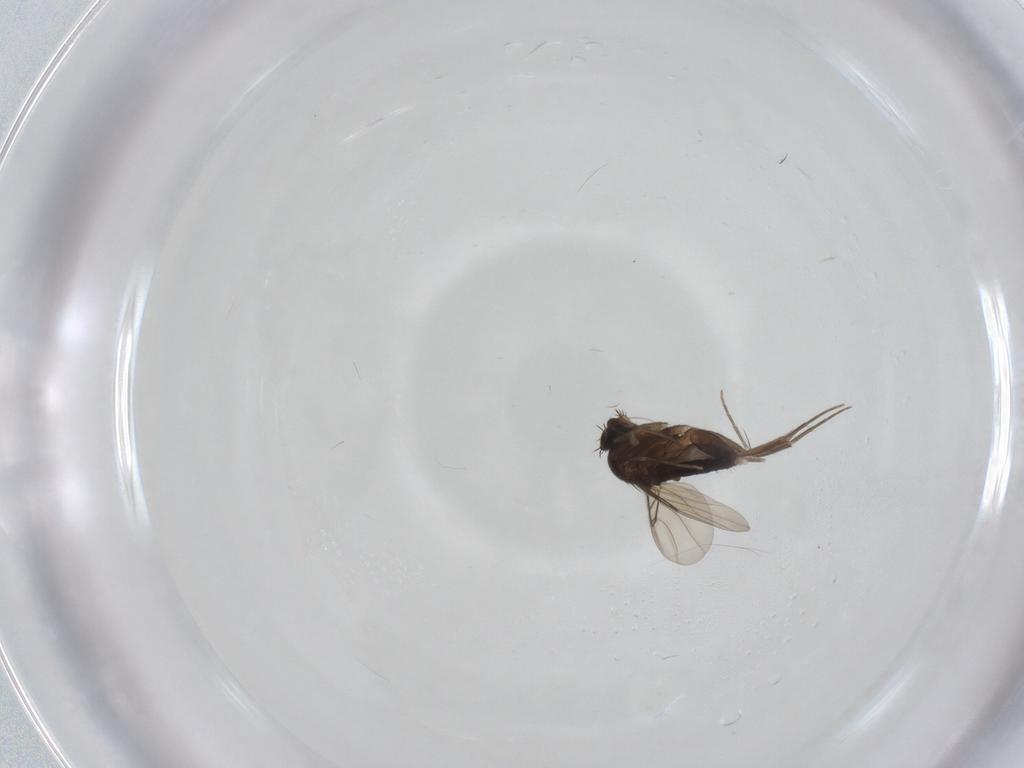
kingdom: Animalia
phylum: Arthropoda
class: Insecta
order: Diptera
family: Phoridae
